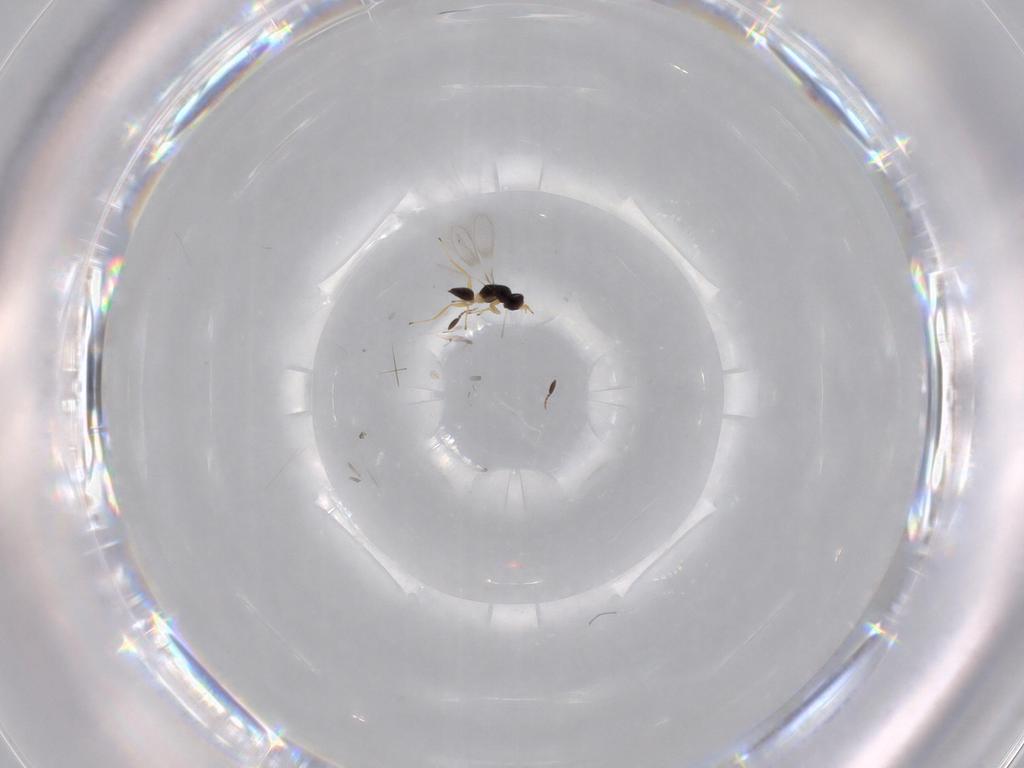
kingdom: Animalia
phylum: Arthropoda
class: Insecta
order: Hymenoptera
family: Mymaridae
